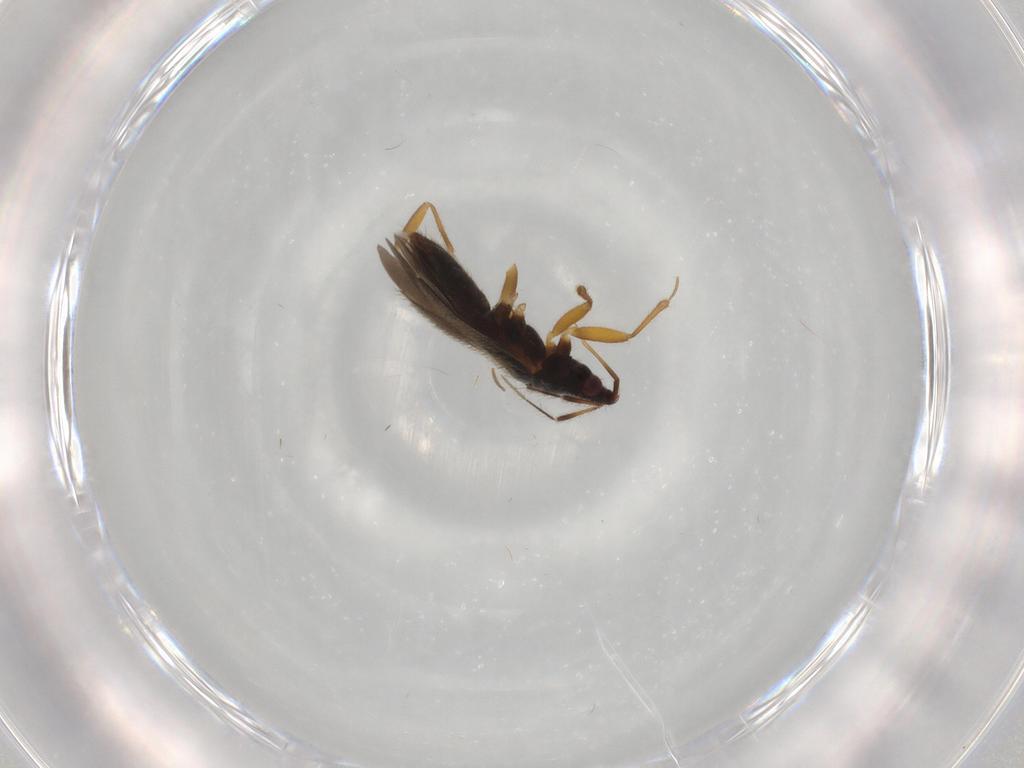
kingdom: Animalia
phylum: Arthropoda
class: Insecta
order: Hemiptera
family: Lasiochilidae
